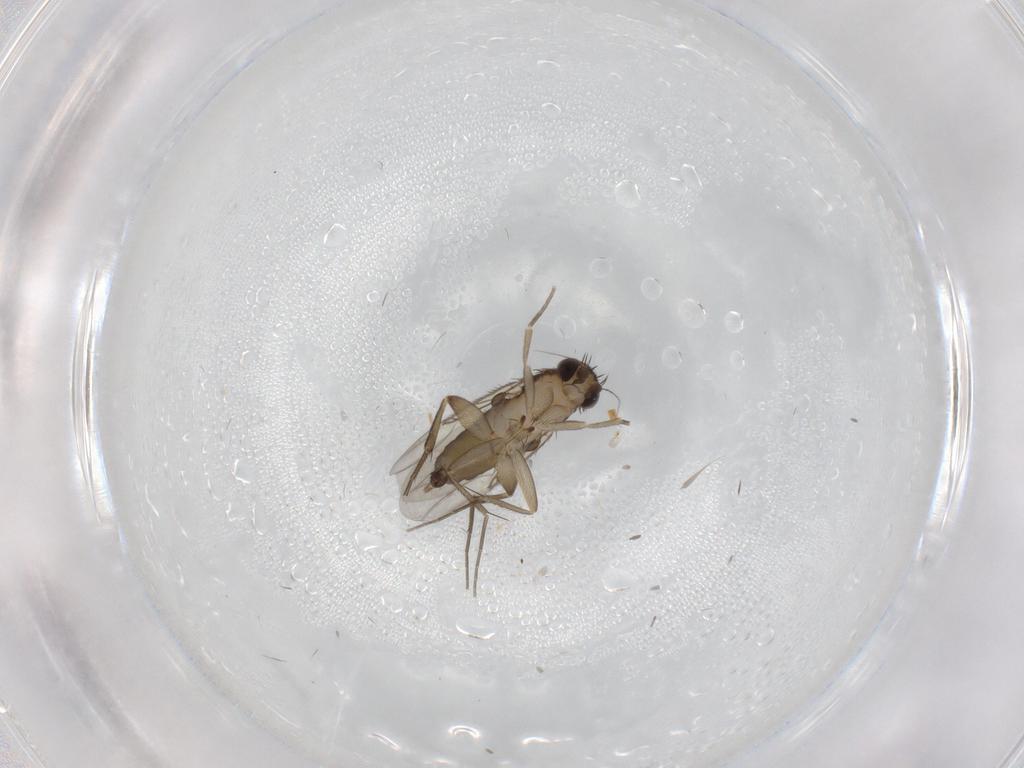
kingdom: Animalia
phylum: Arthropoda
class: Insecta
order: Diptera
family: Phoridae
